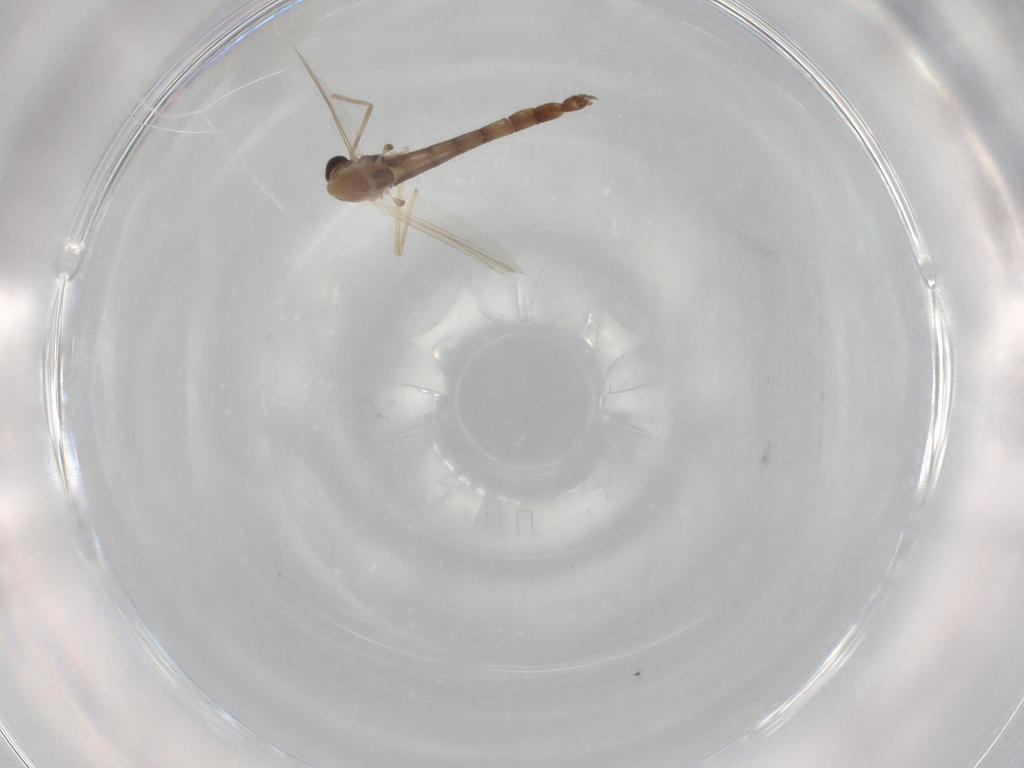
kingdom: Animalia
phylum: Arthropoda
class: Insecta
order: Diptera
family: Chironomidae
